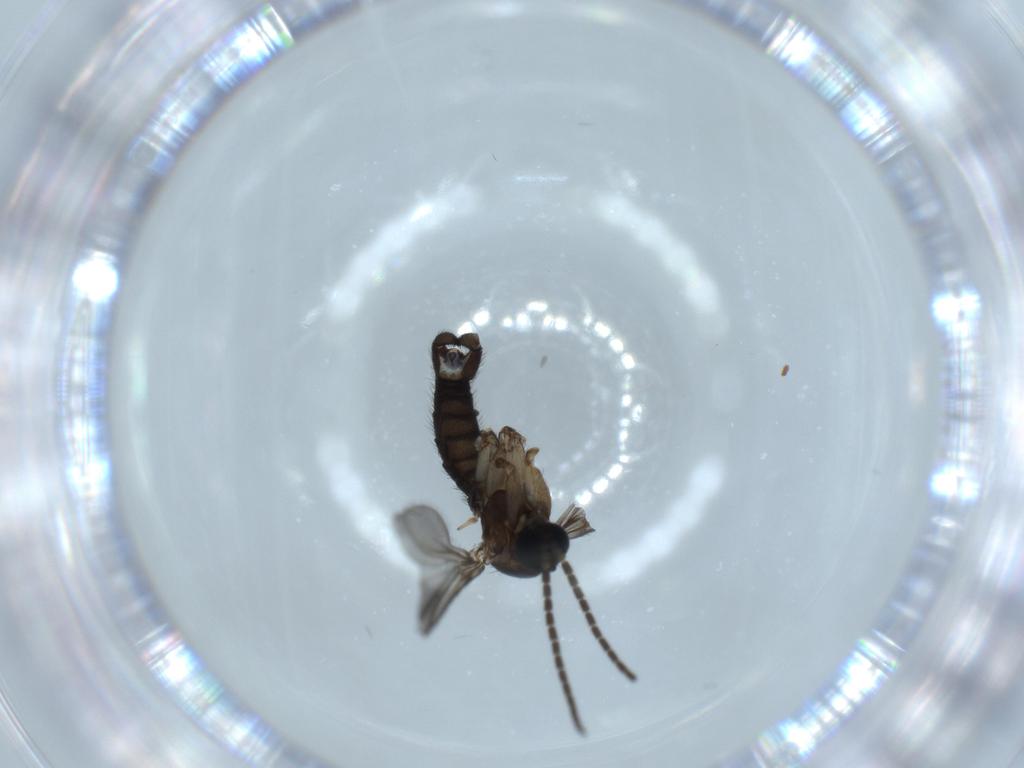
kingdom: Animalia
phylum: Arthropoda
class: Insecta
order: Diptera
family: Sciaridae
